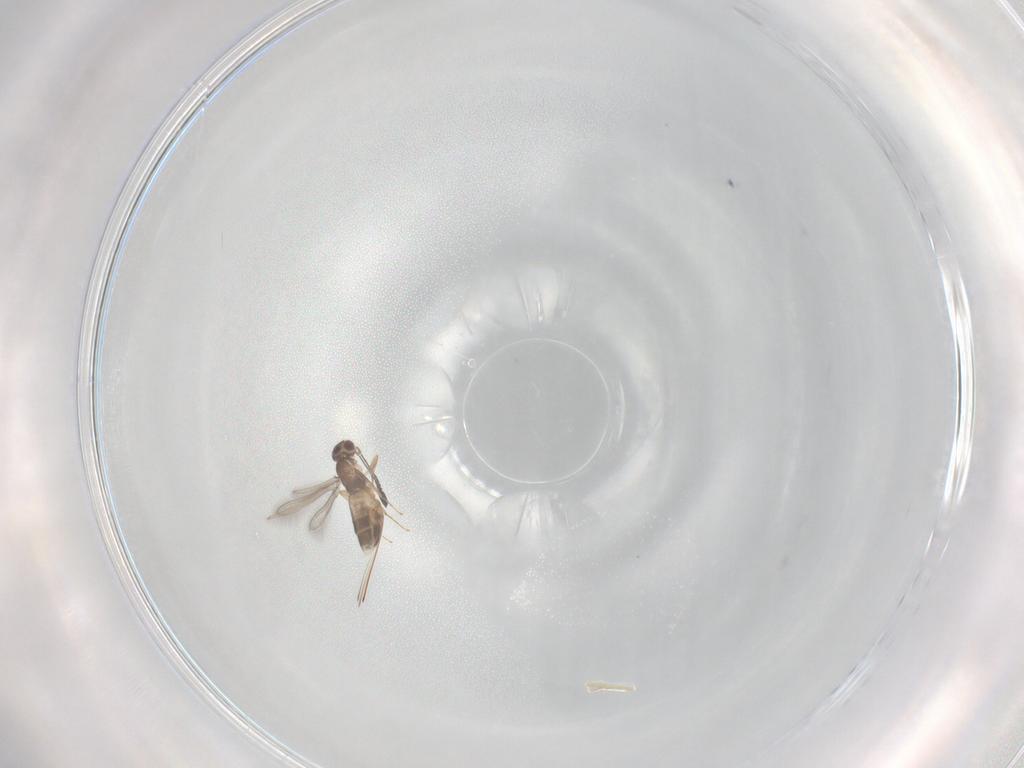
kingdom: Animalia
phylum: Arthropoda
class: Insecta
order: Hymenoptera
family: Mymaridae
